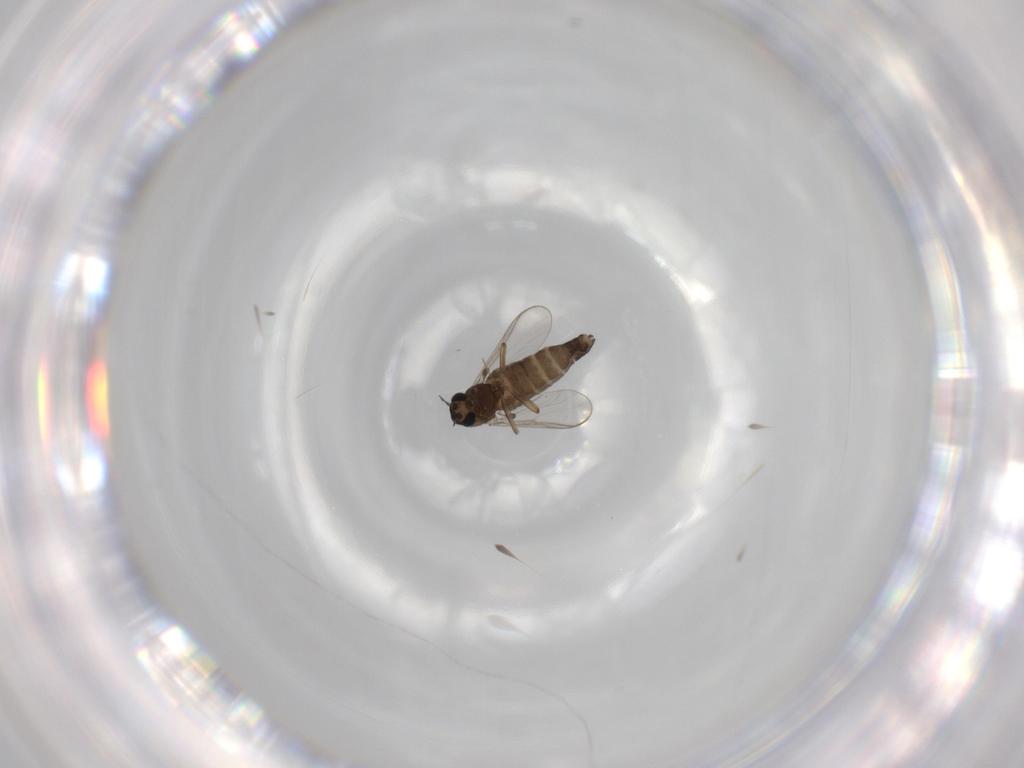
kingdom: Animalia
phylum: Arthropoda
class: Insecta
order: Diptera
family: Chironomidae
